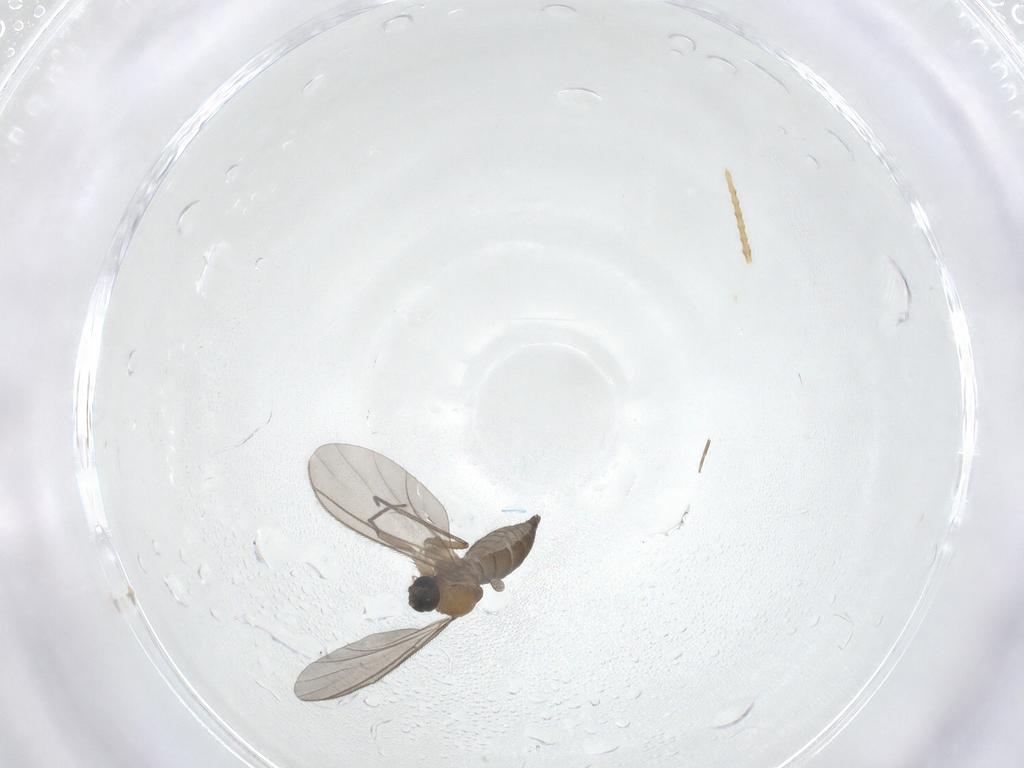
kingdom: Animalia
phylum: Arthropoda
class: Insecta
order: Diptera
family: Sciaridae
